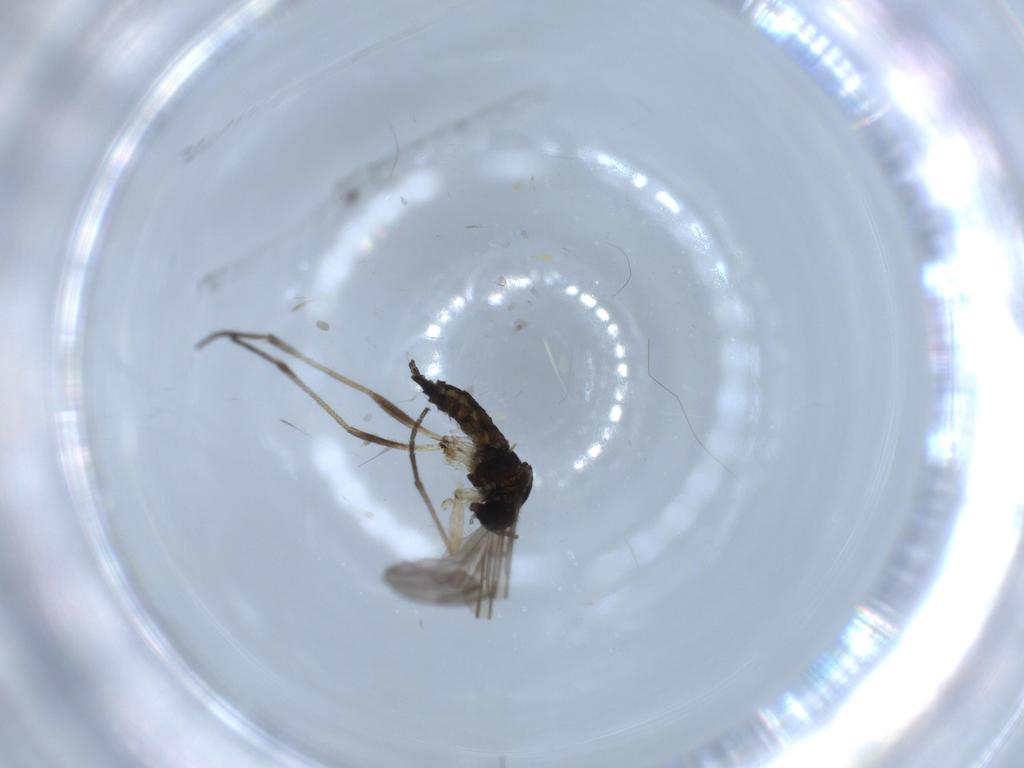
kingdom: Animalia
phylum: Arthropoda
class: Insecta
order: Diptera
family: Sciaridae
